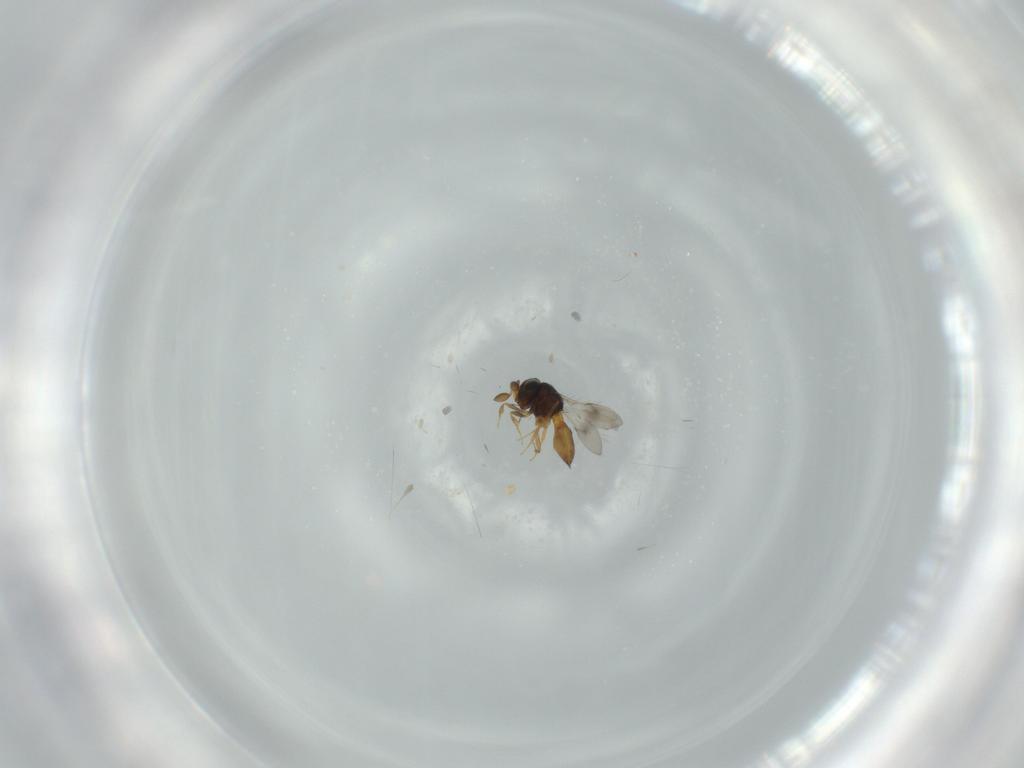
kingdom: Animalia
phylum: Arthropoda
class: Insecta
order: Hymenoptera
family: Scelionidae
